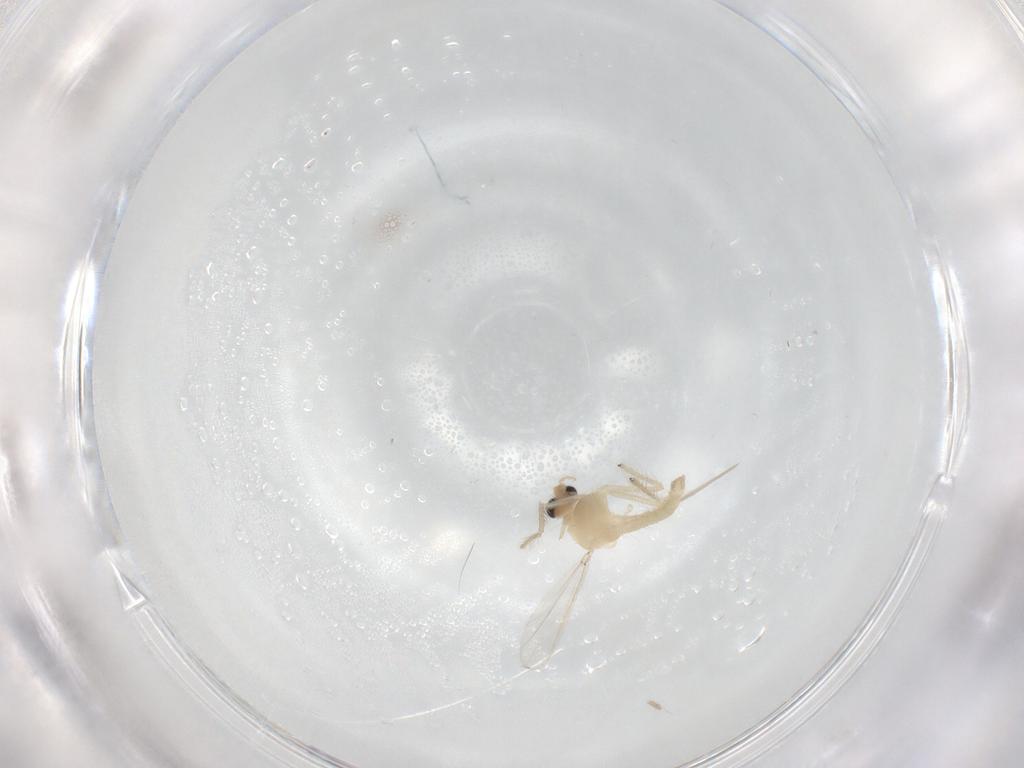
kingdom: Animalia
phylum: Arthropoda
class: Insecta
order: Diptera
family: Chironomidae
